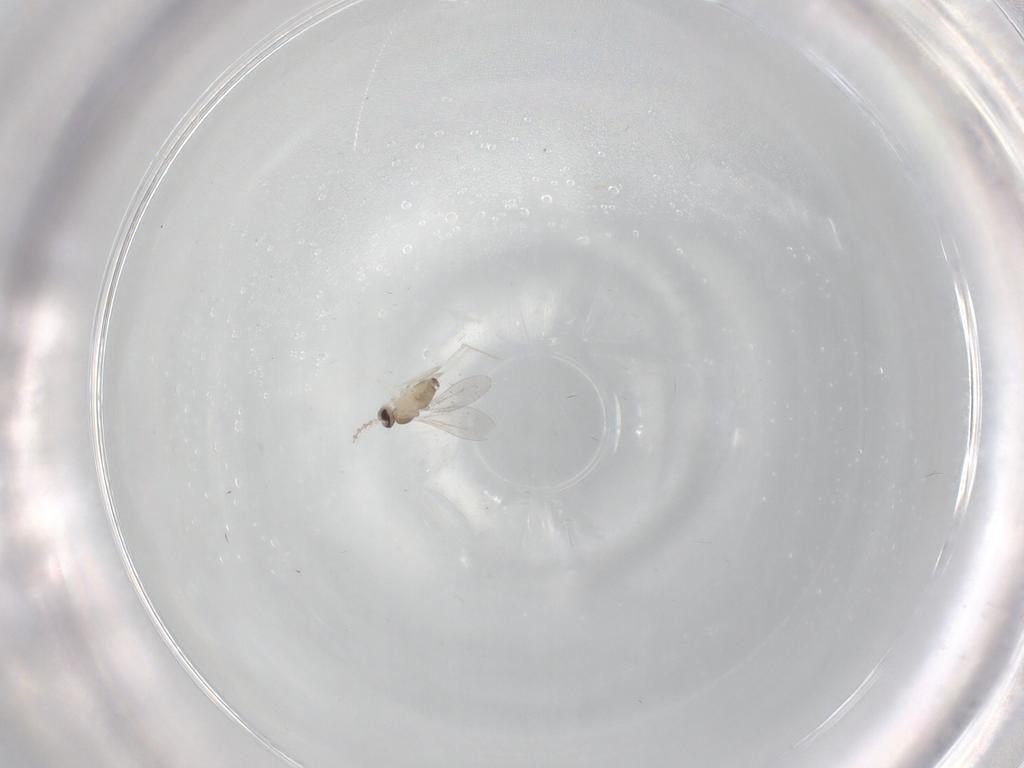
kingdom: Animalia
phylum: Arthropoda
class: Insecta
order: Diptera
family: Cecidomyiidae
